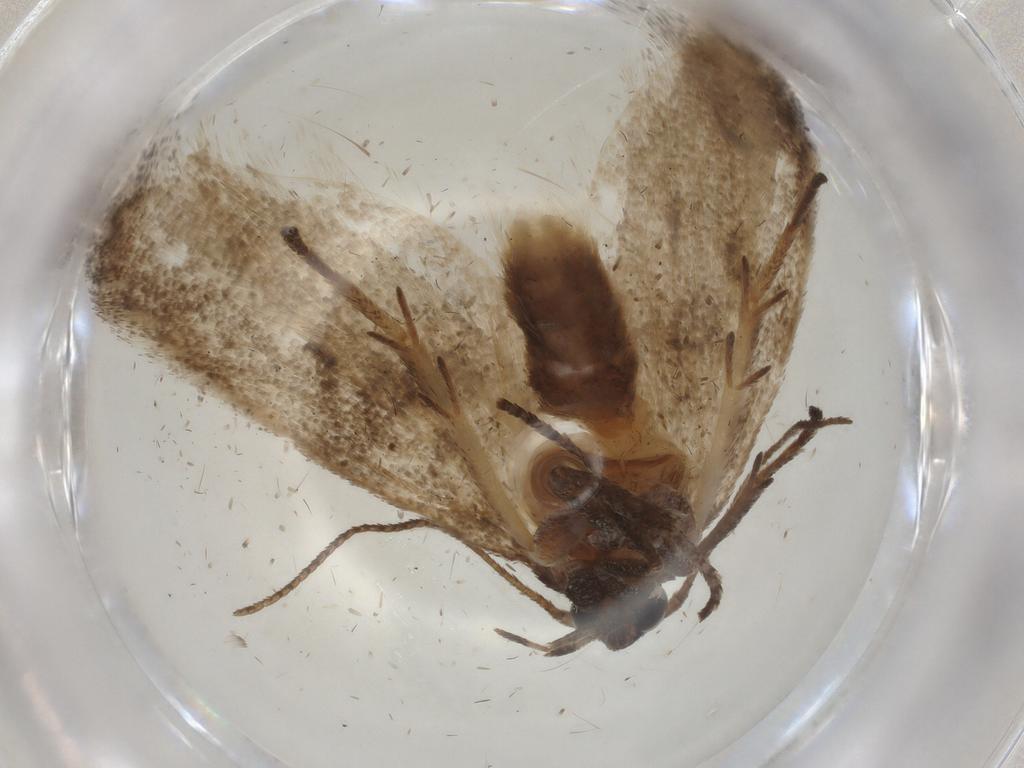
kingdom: Animalia
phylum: Arthropoda
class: Insecta
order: Lepidoptera
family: Cosmopterigidae
